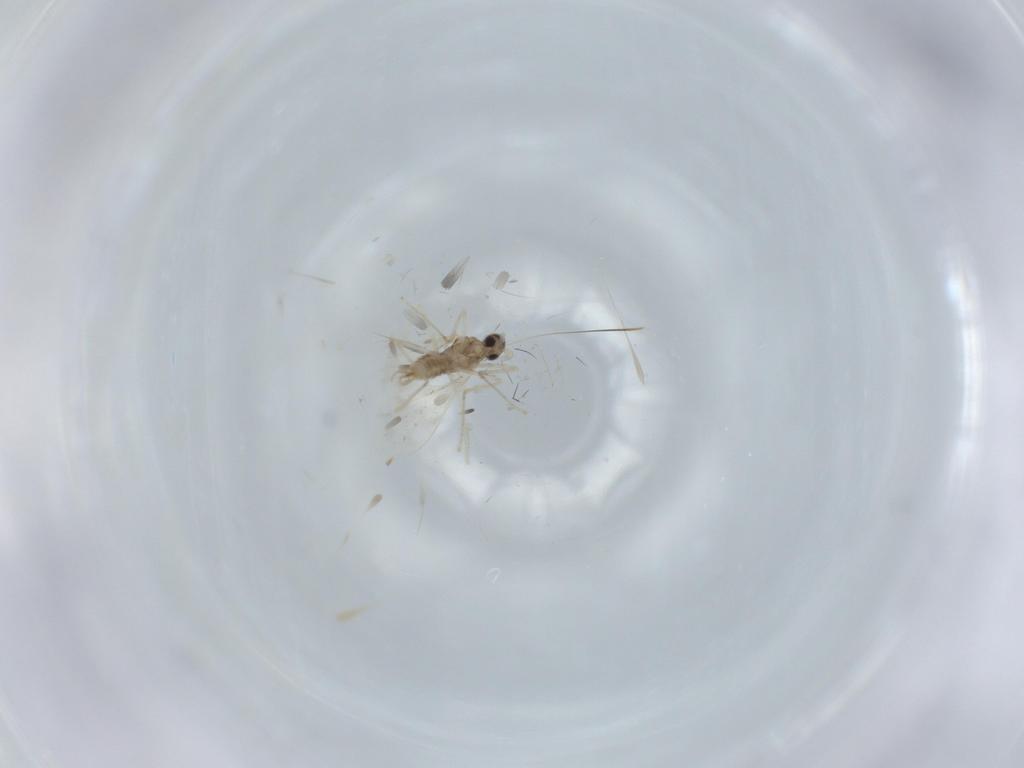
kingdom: Animalia
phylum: Arthropoda
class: Insecta
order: Diptera
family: Cecidomyiidae
